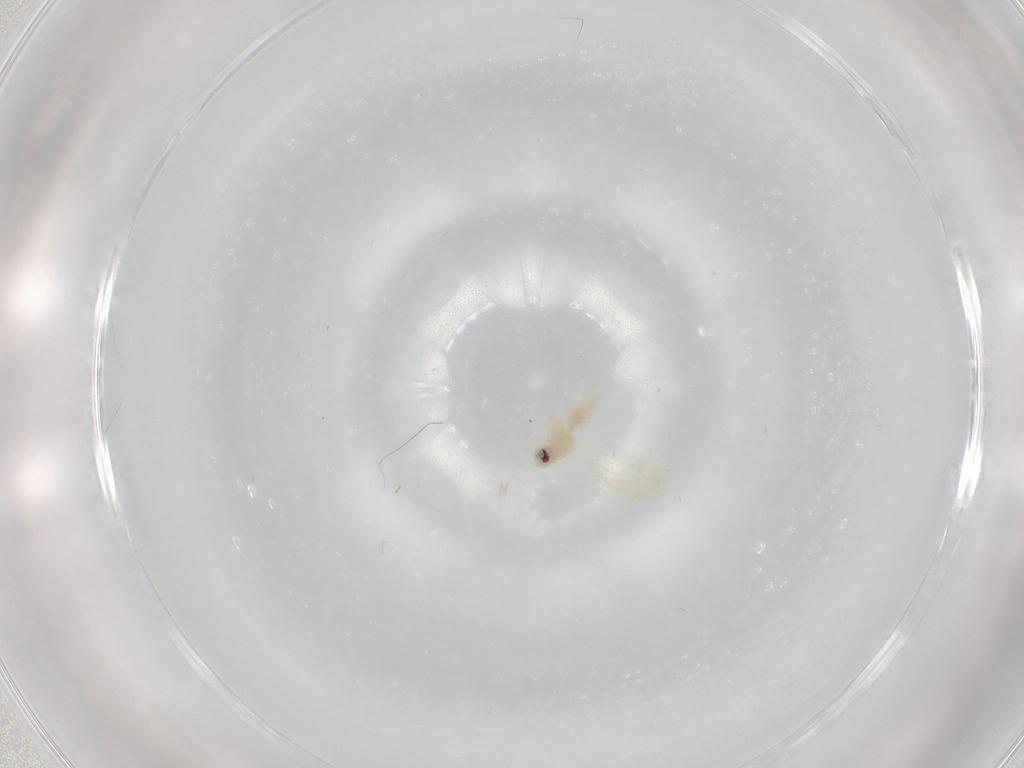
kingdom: Animalia
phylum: Arthropoda
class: Insecta
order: Hemiptera
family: Aleyrodidae
